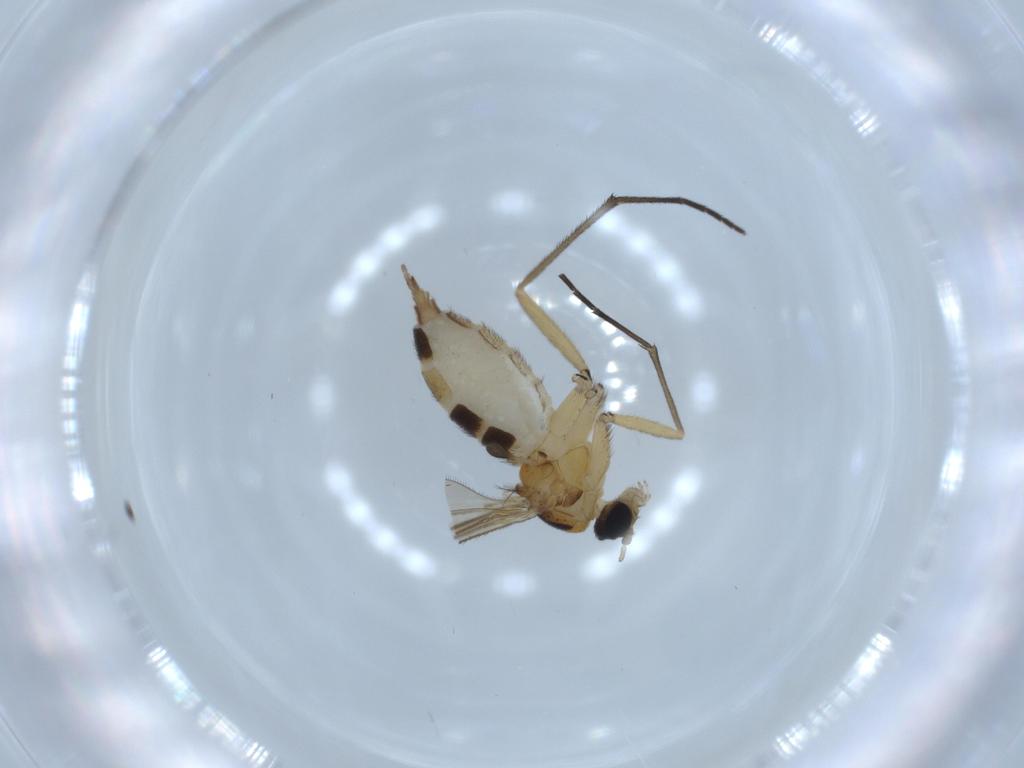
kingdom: Animalia
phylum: Arthropoda
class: Insecta
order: Diptera
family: Sciaridae
